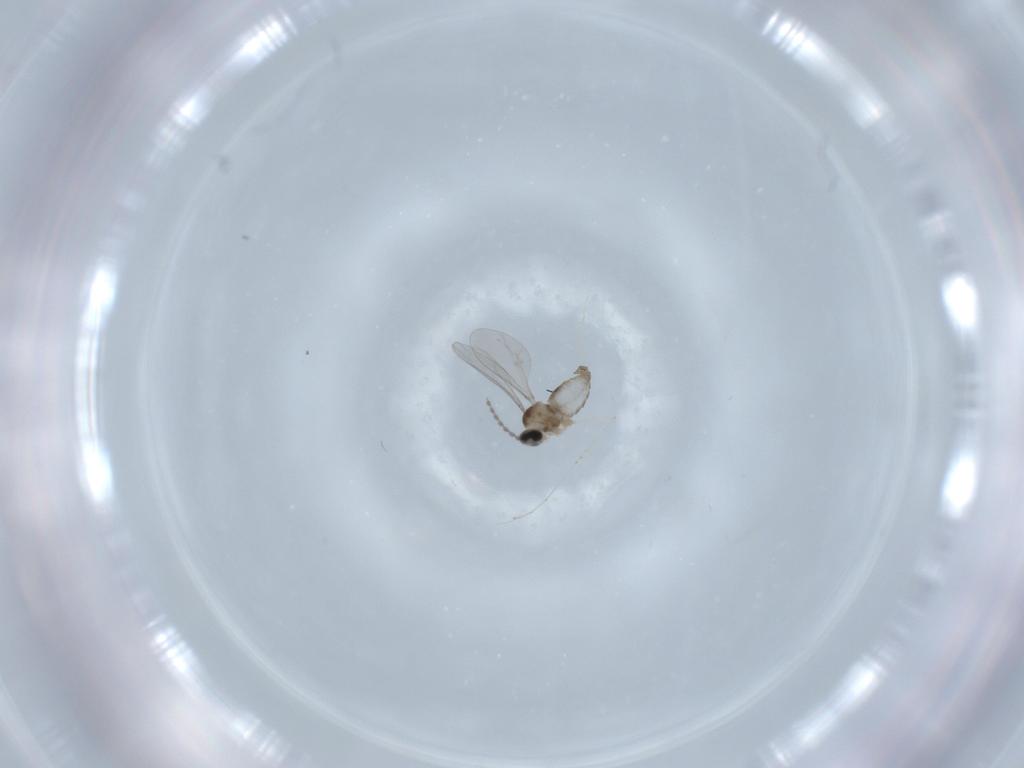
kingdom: Animalia
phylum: Arthropoda
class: Insecta
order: Diptera
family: Cecidomyiidae
